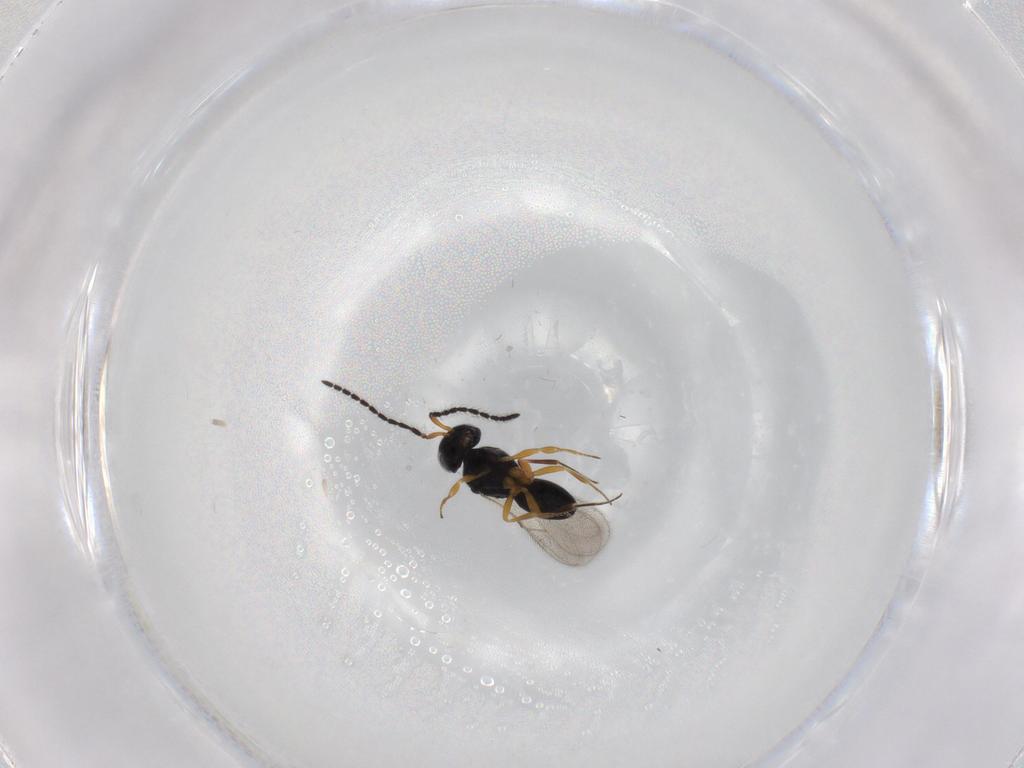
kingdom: Animalia
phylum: Arthropoda
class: Insecta
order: Hymenoptera
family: Scelionidae
